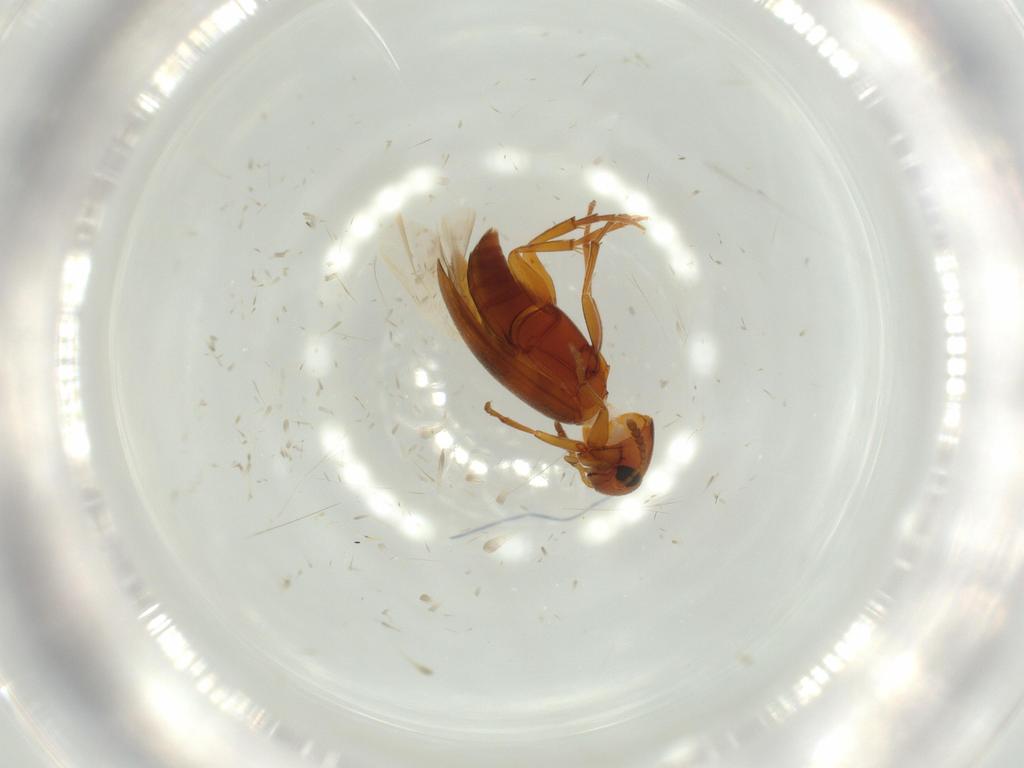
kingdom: Animalia
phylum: Arthropoda
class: Insecta
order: Coleoptera
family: Scraptiidae
